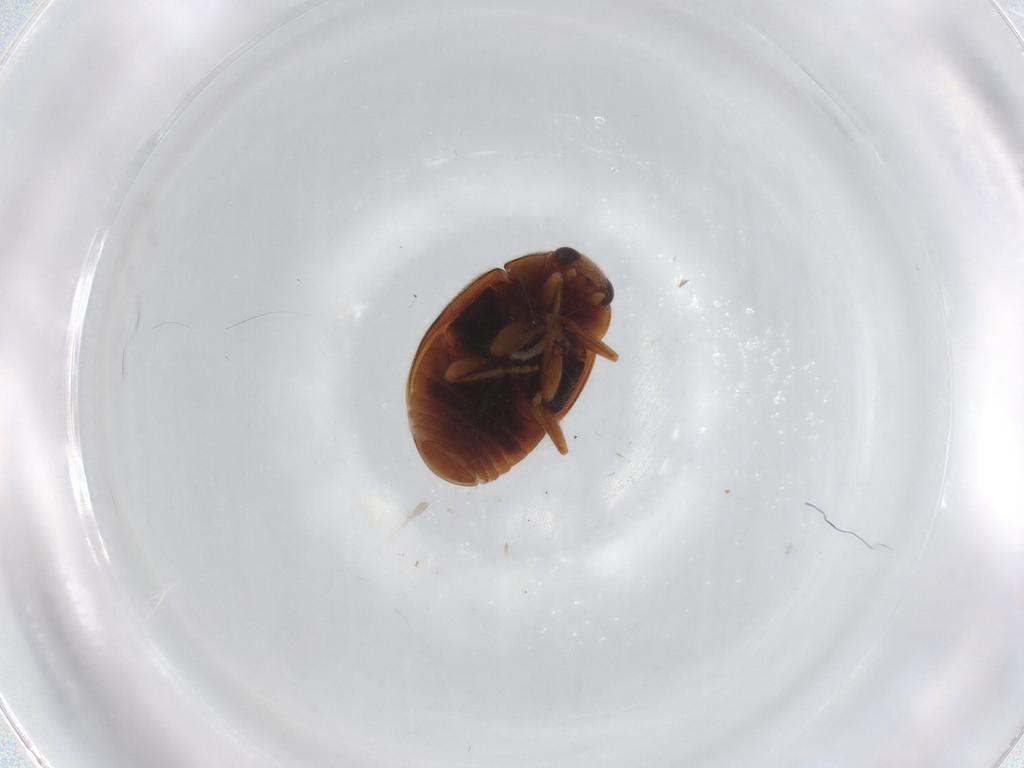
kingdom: Animalia
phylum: Arthropoda
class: Insecta
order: Coleoptera
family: Coccinellidae
